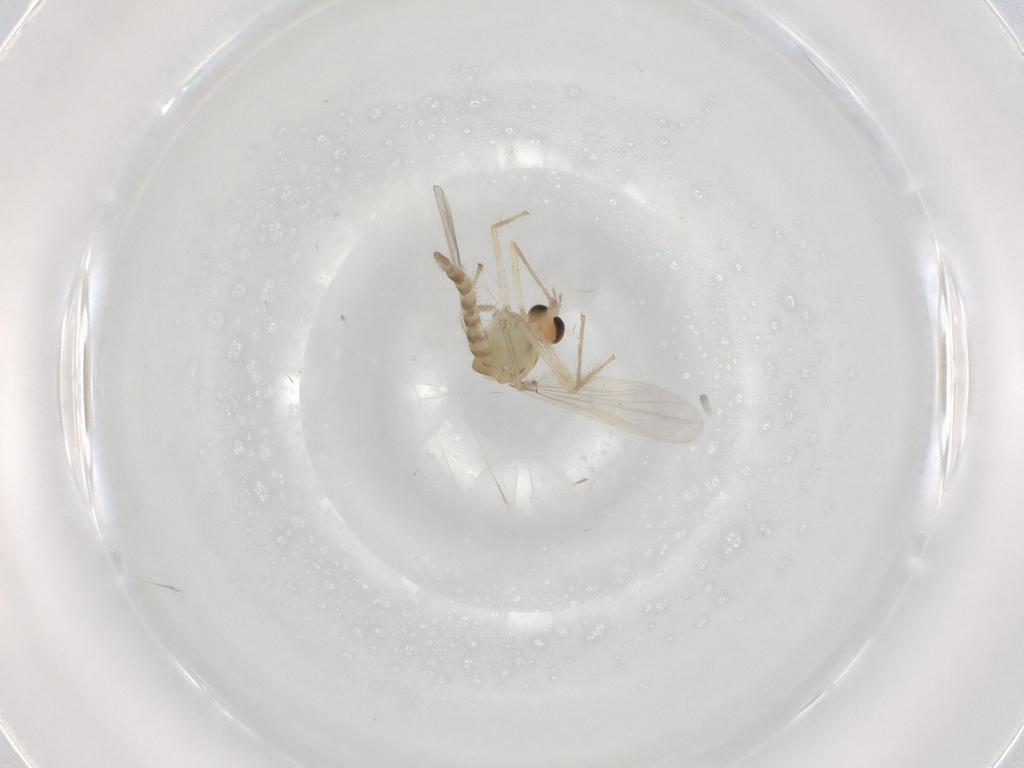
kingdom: Animalia
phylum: Arthropoda
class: Insecta
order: Diptera
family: Chironomidae
